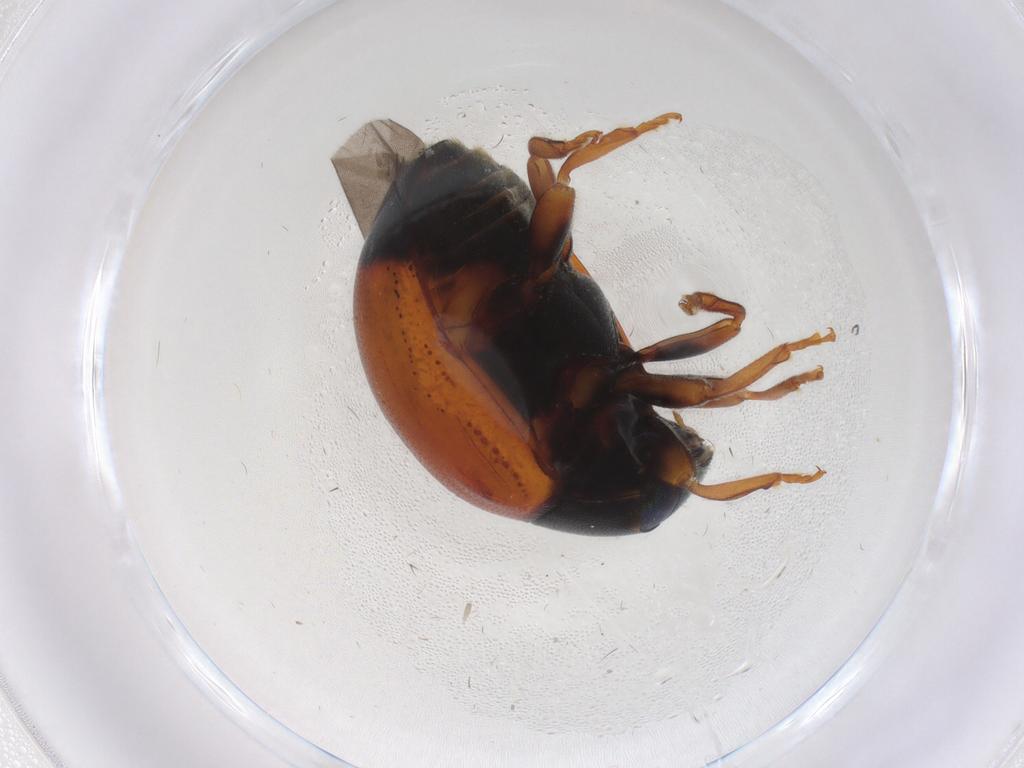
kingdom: Animalia
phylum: Arthropoda
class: Insecta
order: Coleoptera
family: Coccinellidae
